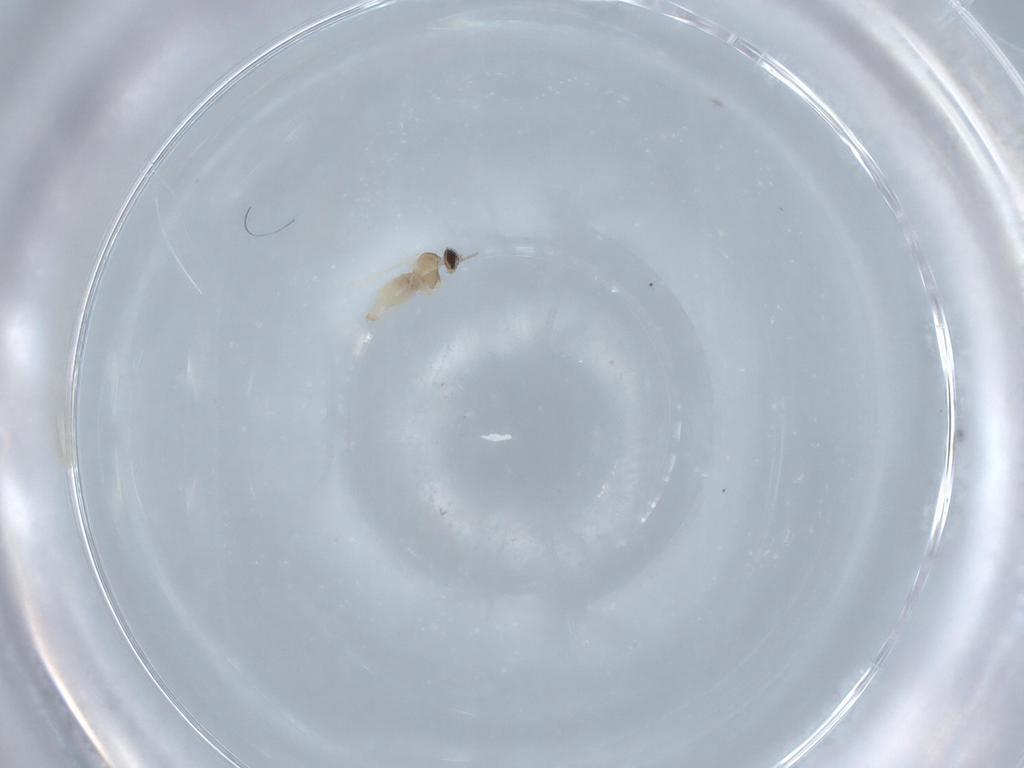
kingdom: Animalia
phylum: Arthropoda
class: Insecta
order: Diptera
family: Cecidomyiidae
